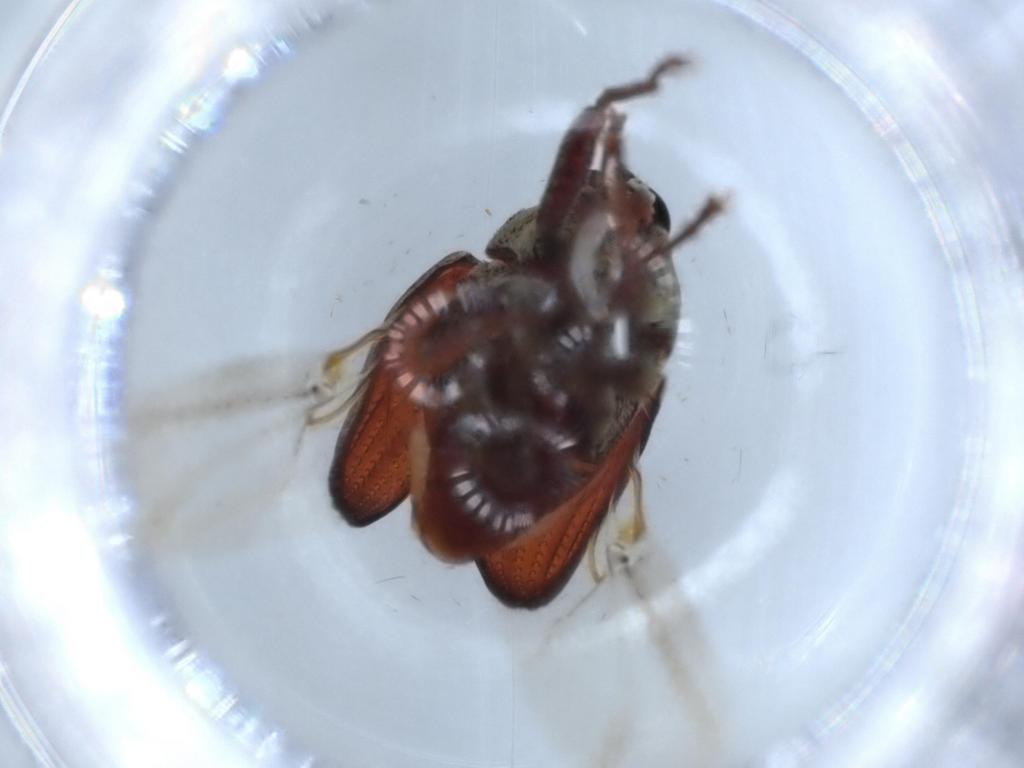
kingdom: Animalia
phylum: Arthropoda
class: Insecta
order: Coleoptera
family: Curculionidae
